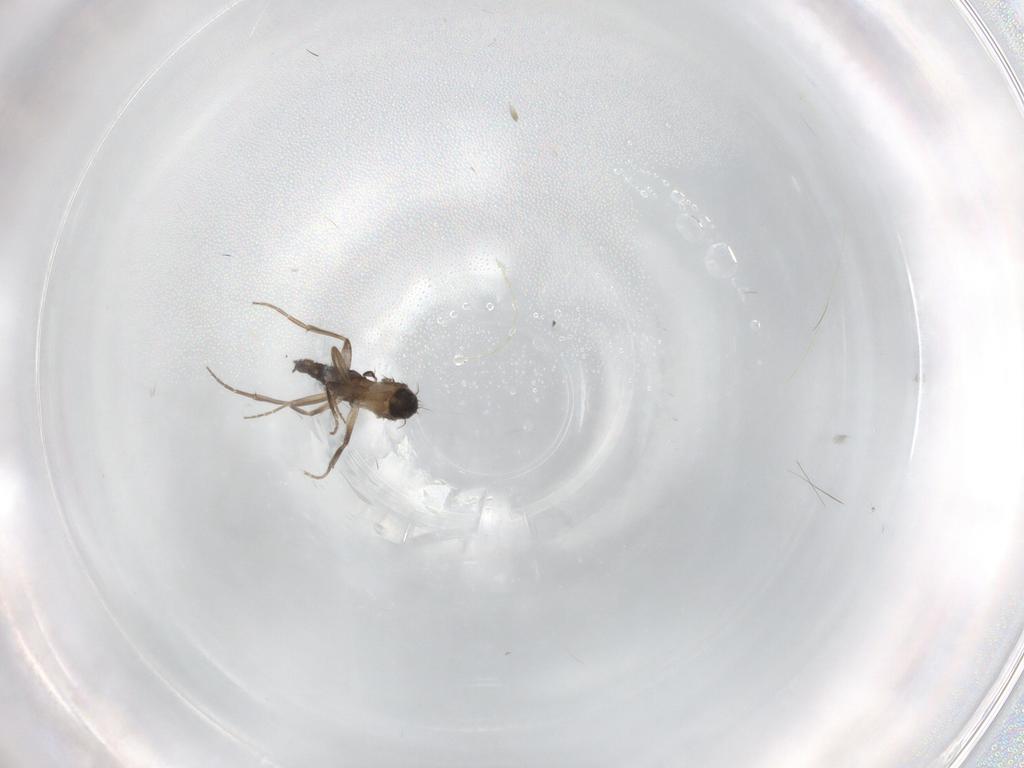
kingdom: Animalia
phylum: Arthropoda
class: Insecta
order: Diptera
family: Phoridae
